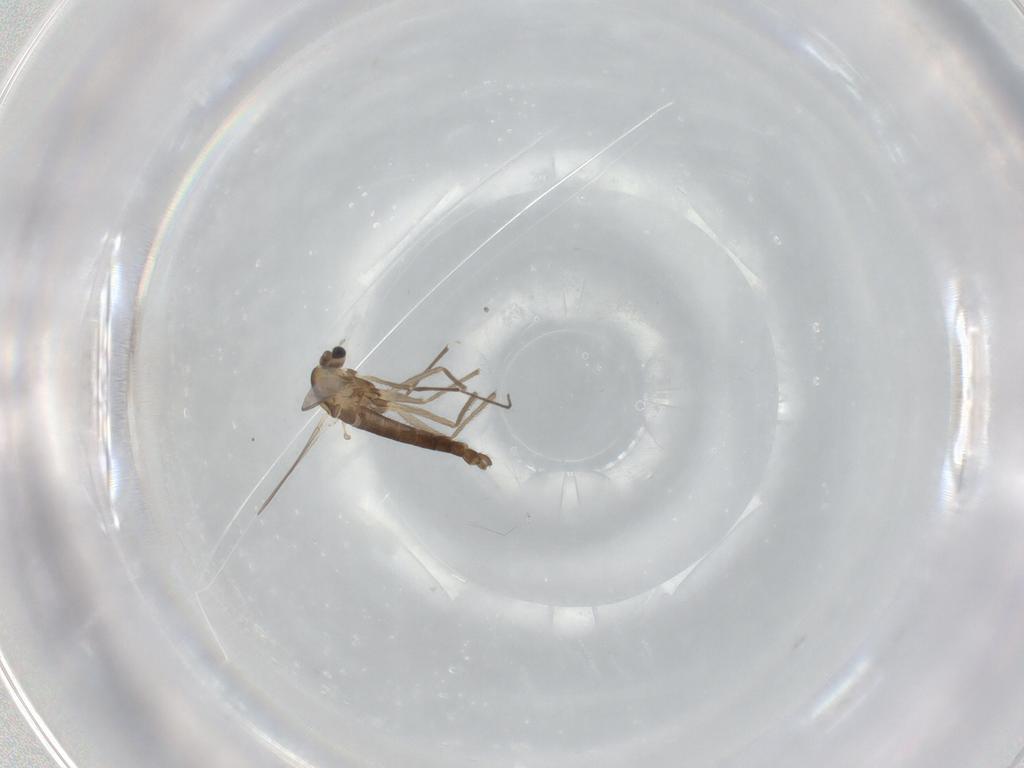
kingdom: Animalia
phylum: Arthropoda
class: Insecta
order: Diptera
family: Chironomidae
